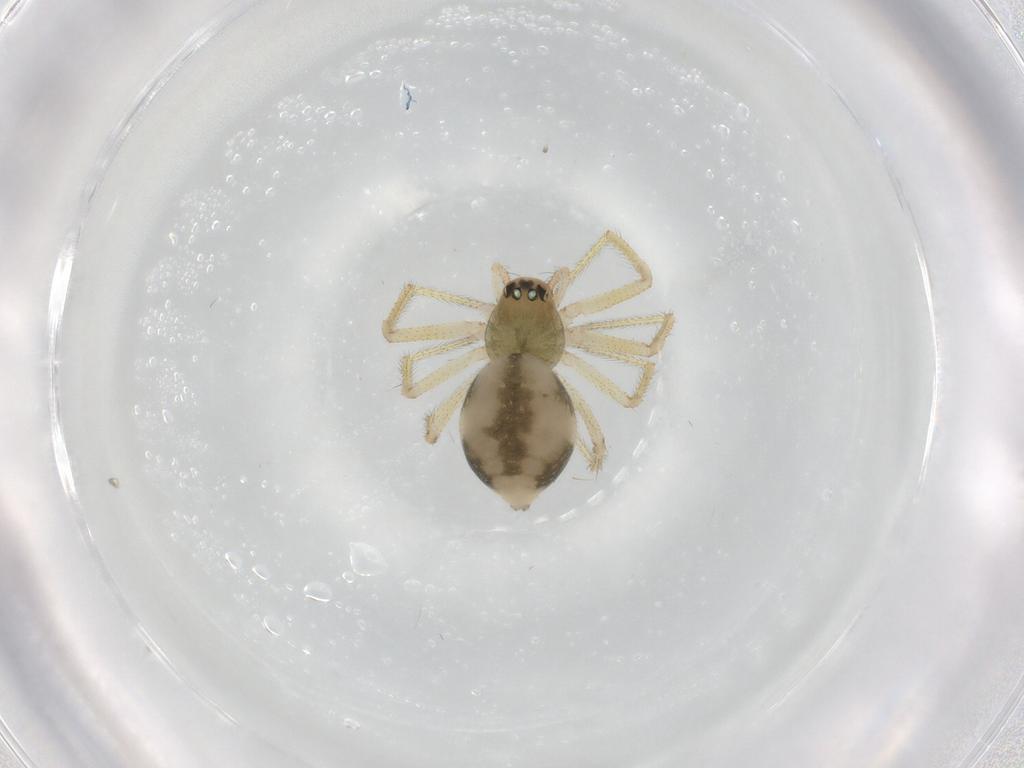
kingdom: Animalia
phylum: Arthropoda
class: Arachnida
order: Araneae
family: Linyphiidae
